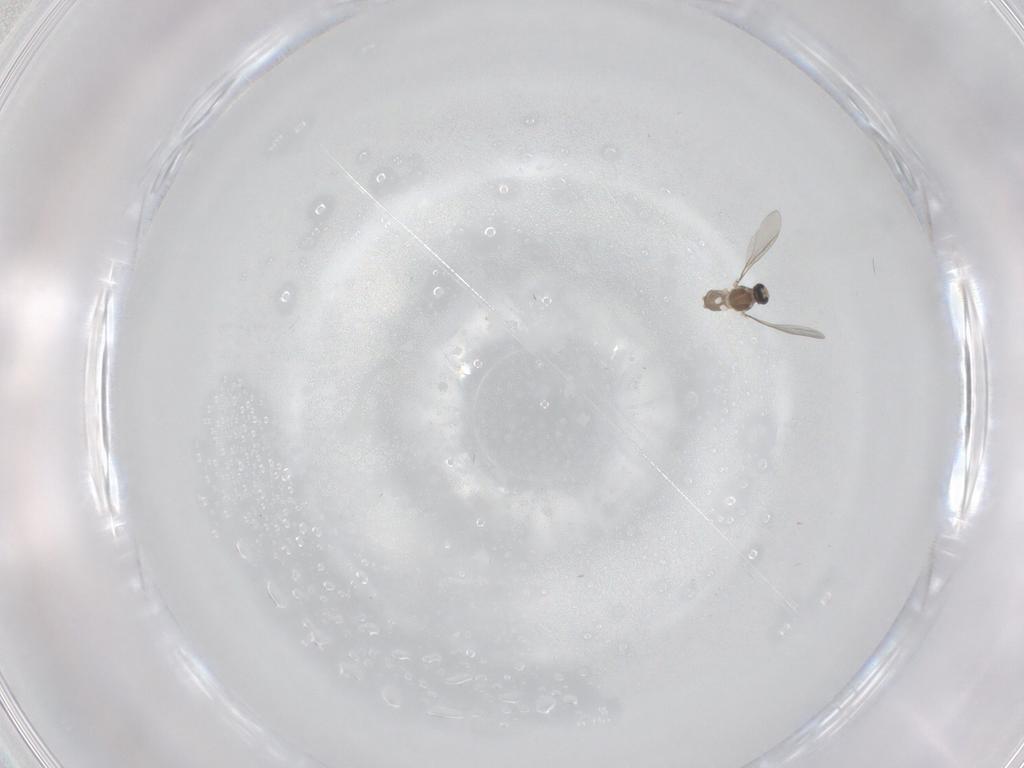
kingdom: Animalia
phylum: Arthropoda
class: Insecta
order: Diptera
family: Cecidomyiidae
